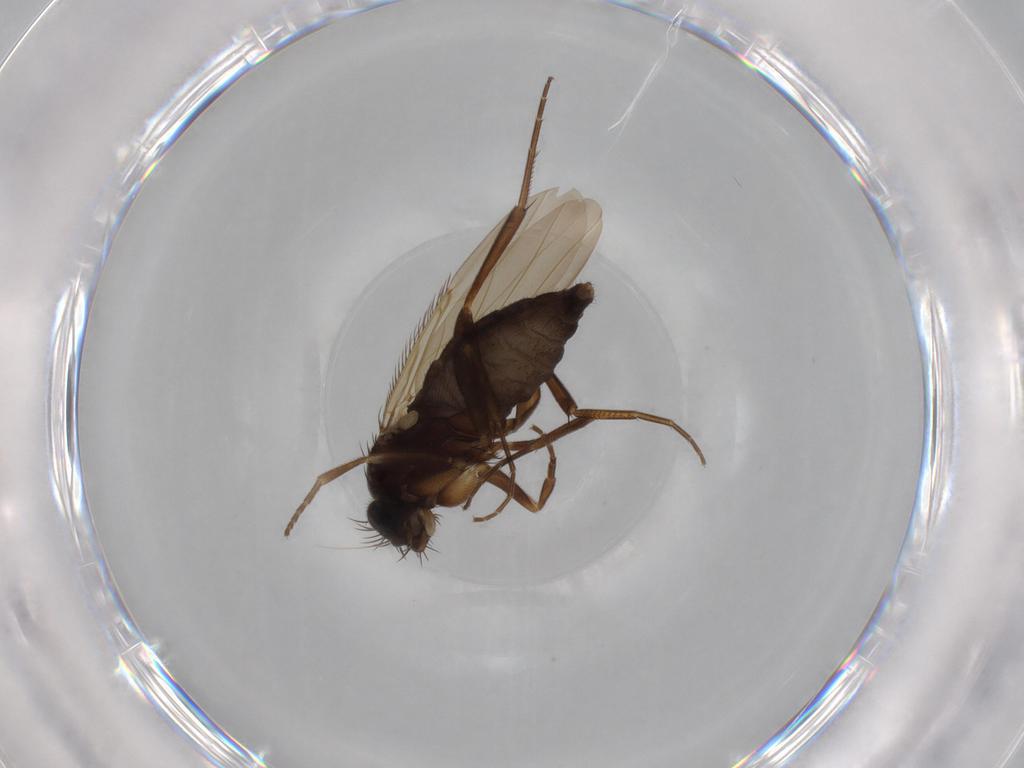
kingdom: Animalia
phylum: Arthropoda
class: Insecta
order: Diptera
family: Phoridae
